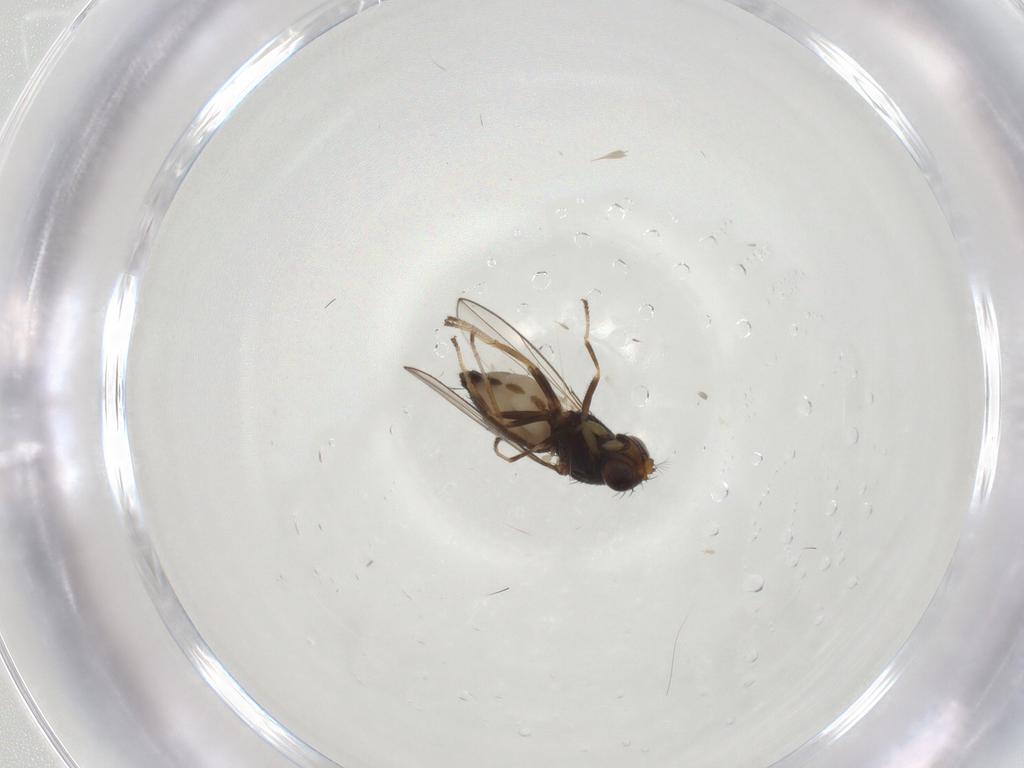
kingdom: Animalia
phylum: Arthropoda
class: Insecta
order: Diptera
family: Ephydridae
